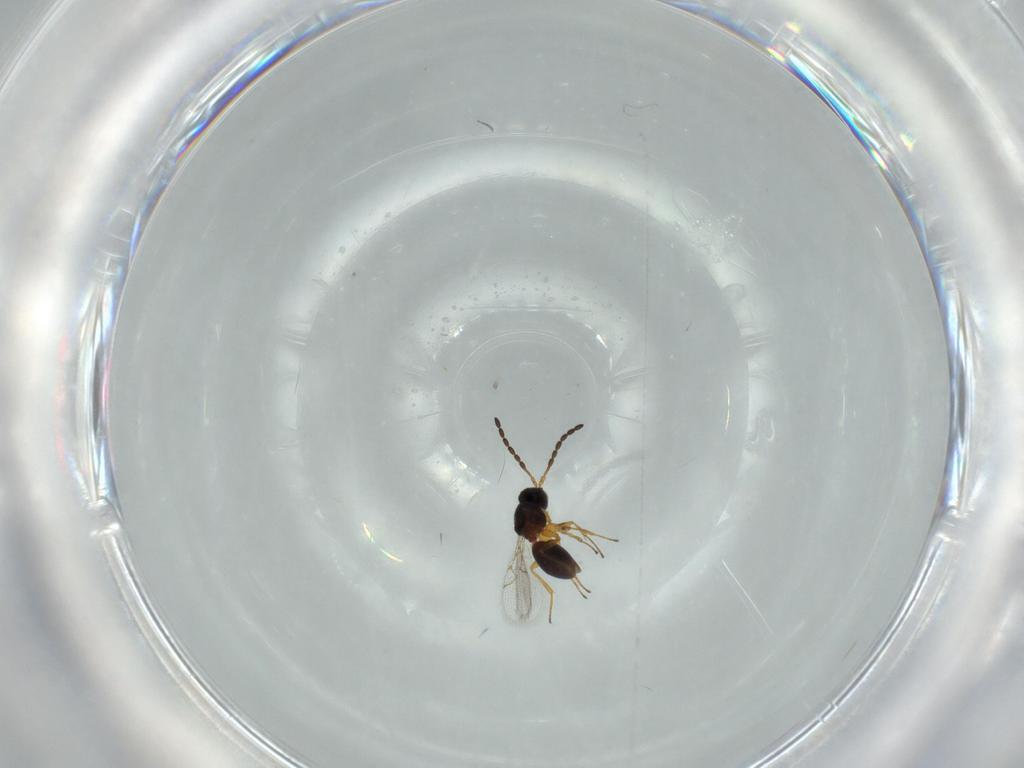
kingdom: Animalia
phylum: Arthropoda
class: Insecta
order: Hymenoptera
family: Figitidae
